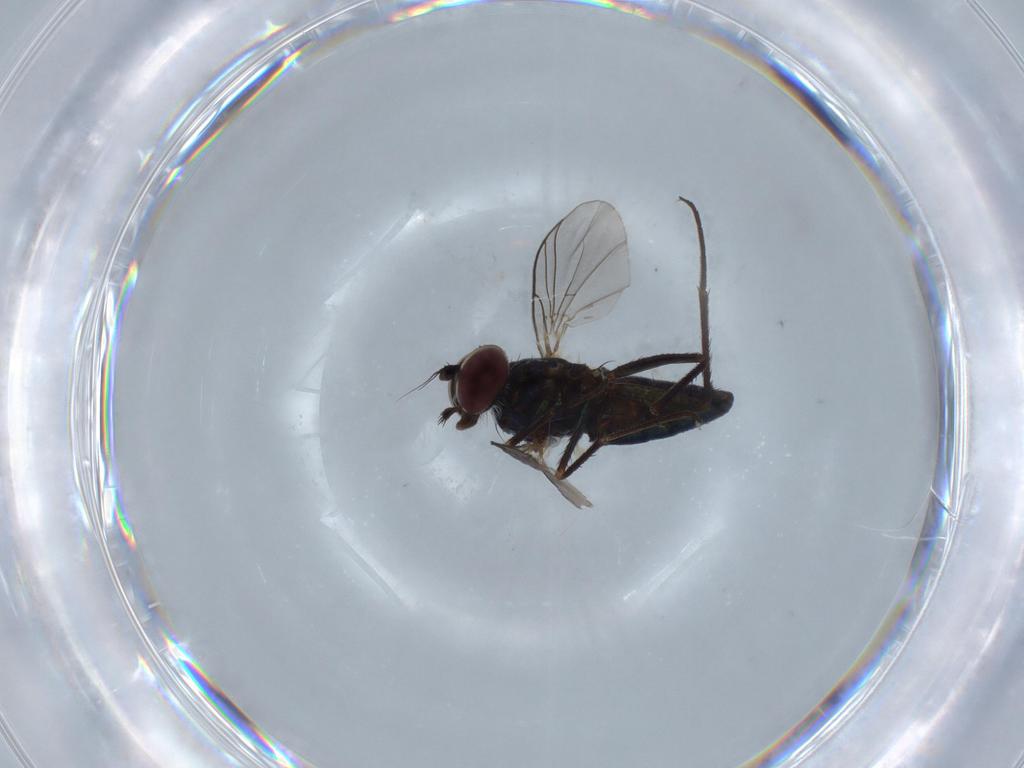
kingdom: Animalia
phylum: Arthropoda
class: Insecta
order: Diptera
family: Dolichopodidae
